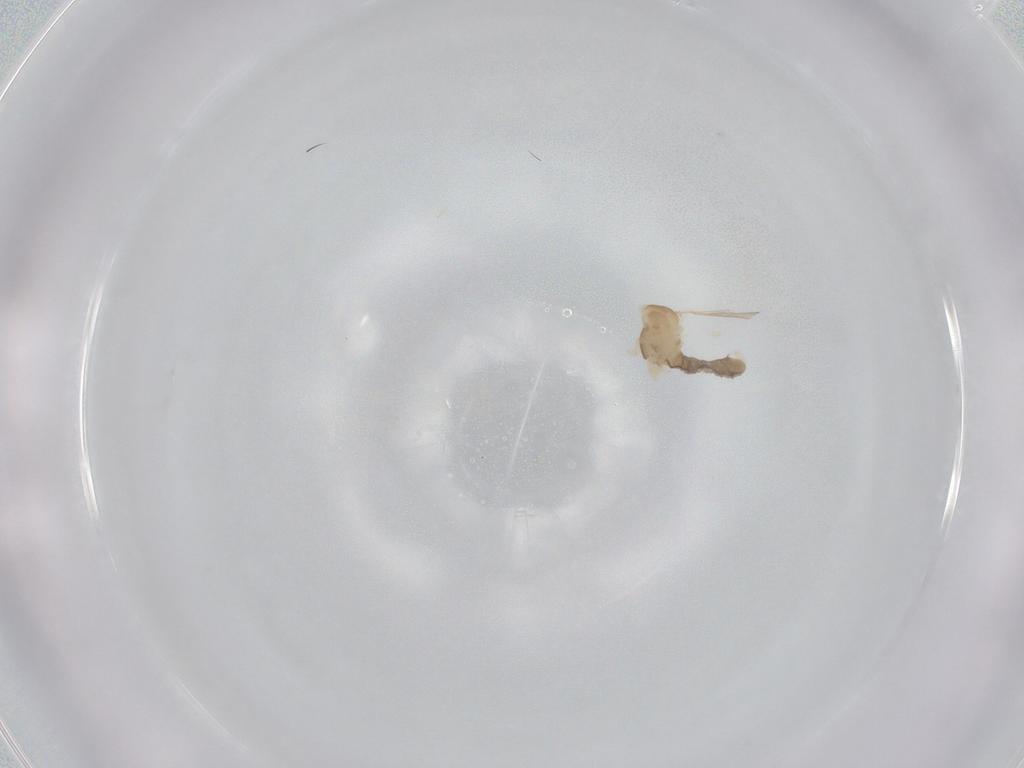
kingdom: Animalia
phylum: Arthropoda
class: Insecta
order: Diptera
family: Cecidomyiidae
